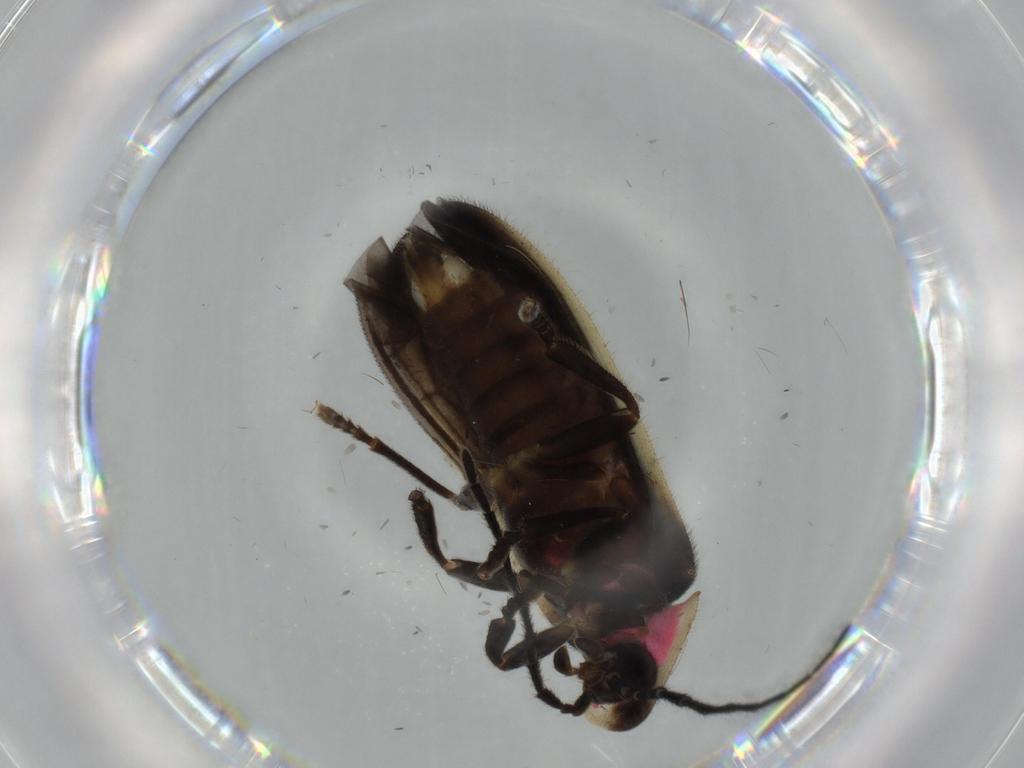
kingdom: Animalia
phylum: Arthropoda
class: Insecta
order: Coleoptera
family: Lampyridae
